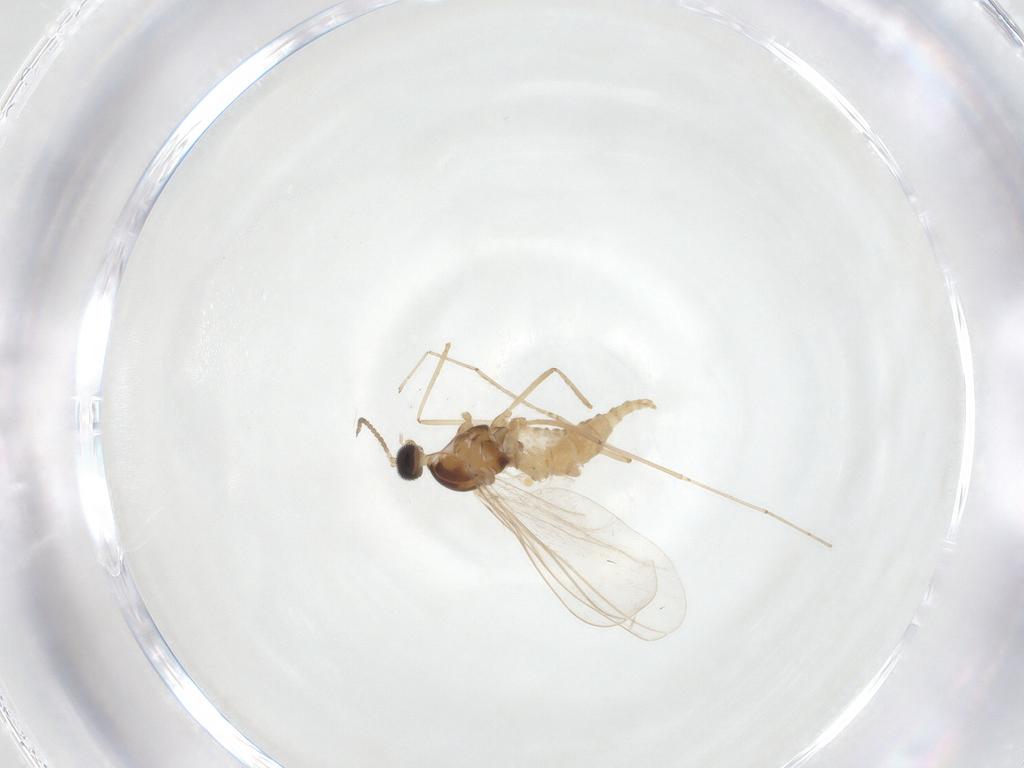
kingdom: Animalia
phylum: Arthropoda
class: Insecta
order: Diptera
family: Cecidomyiidae
